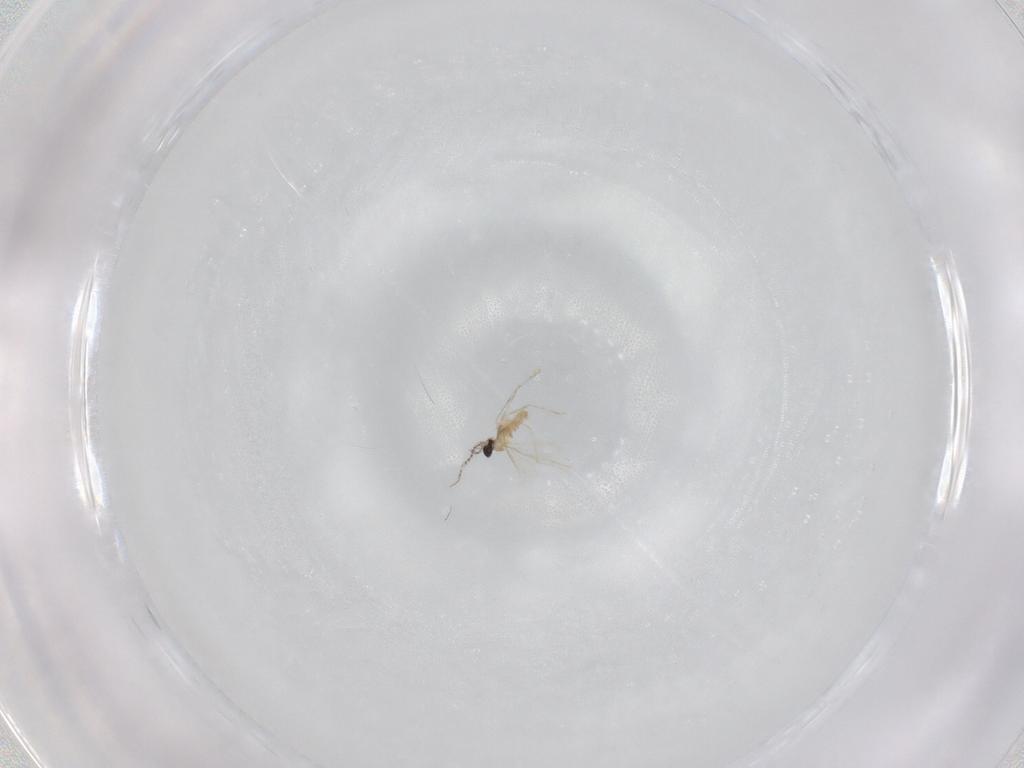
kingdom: Animalia
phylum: Arthropoda
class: Insecta
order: Diptera
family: Cecidomyiidae
